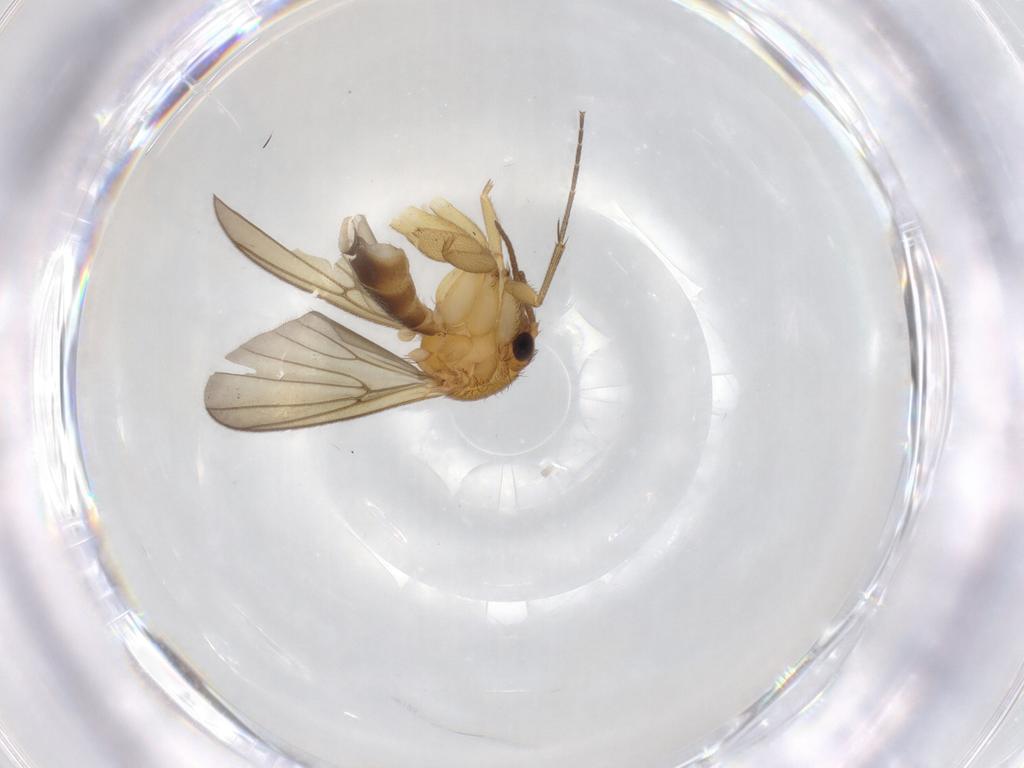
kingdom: Animalia
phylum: Arthropoda
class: Insecta
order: Diptera
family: Mycetophilidae
